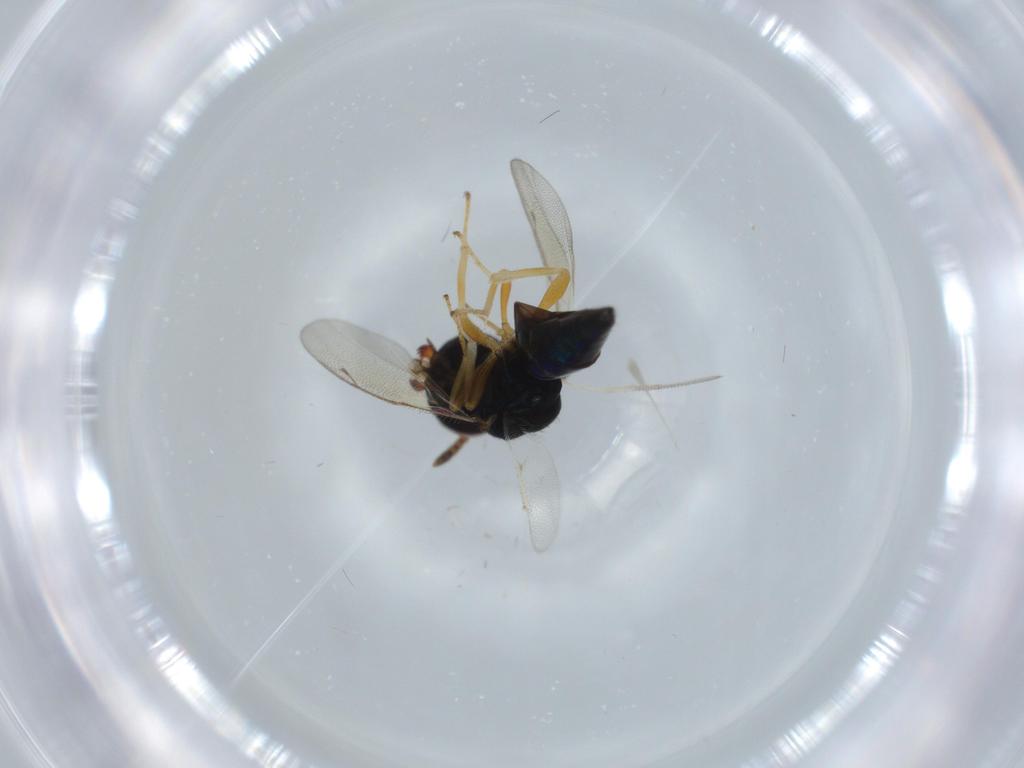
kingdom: Animalia
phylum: Arthropoda
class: Insecta
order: Hymenoptera
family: Pteromalidae
